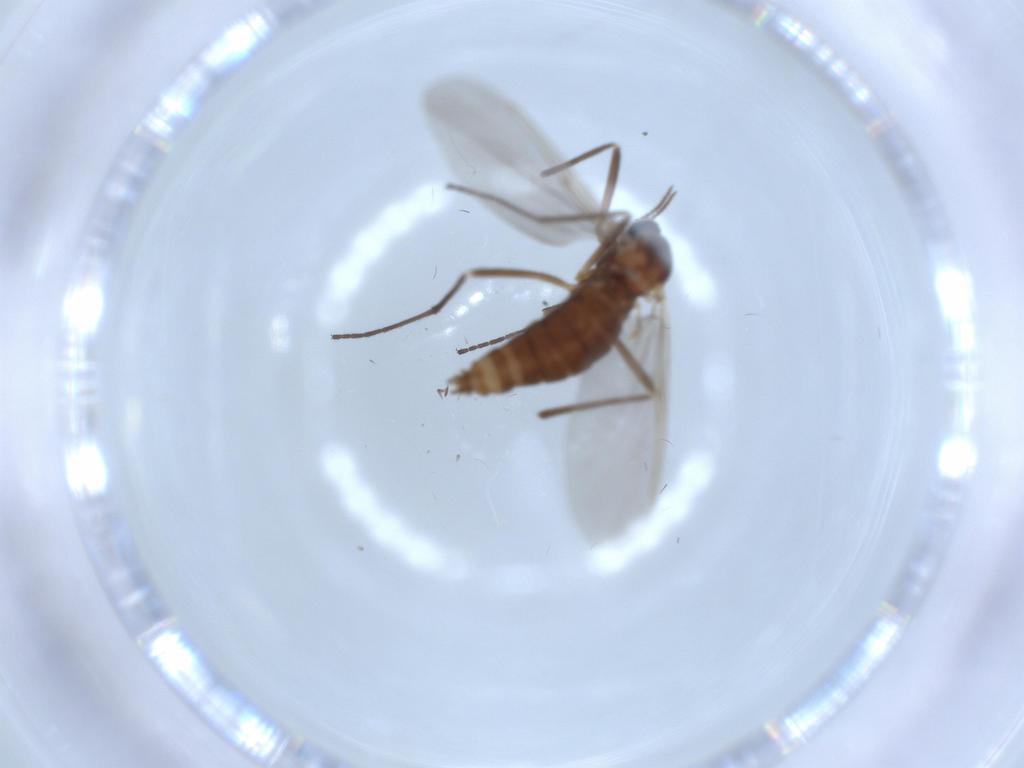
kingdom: Animalia
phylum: Arthropoda
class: Insecta
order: Diptera
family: Cecidomyiidae
